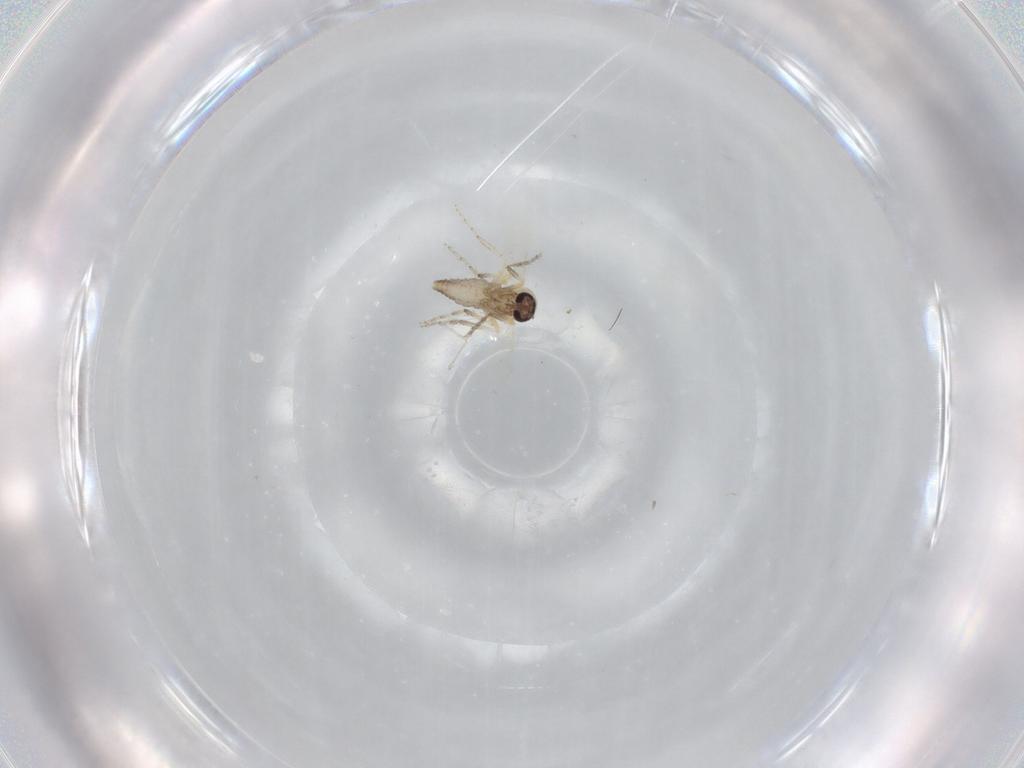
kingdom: Animalia
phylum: Arthropoda
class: Insecta
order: Diptera
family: Ceratopogonidae
